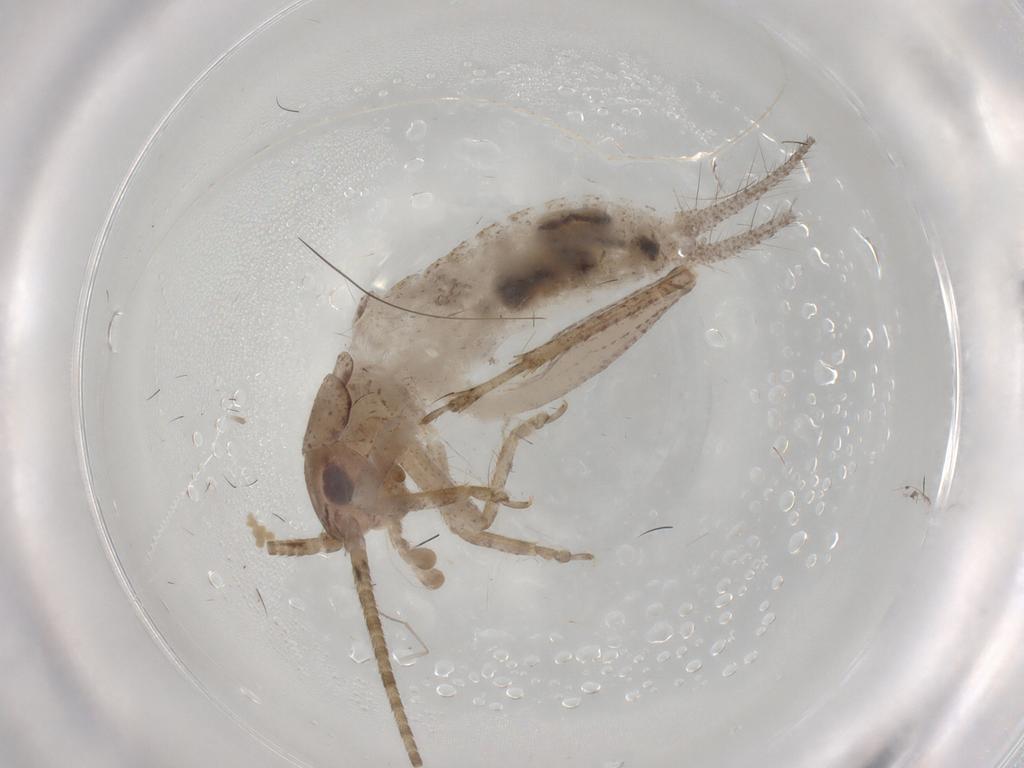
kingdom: Animalia
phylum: Arthropoda
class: Insecta
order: Orthoptera
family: Gryllidae
